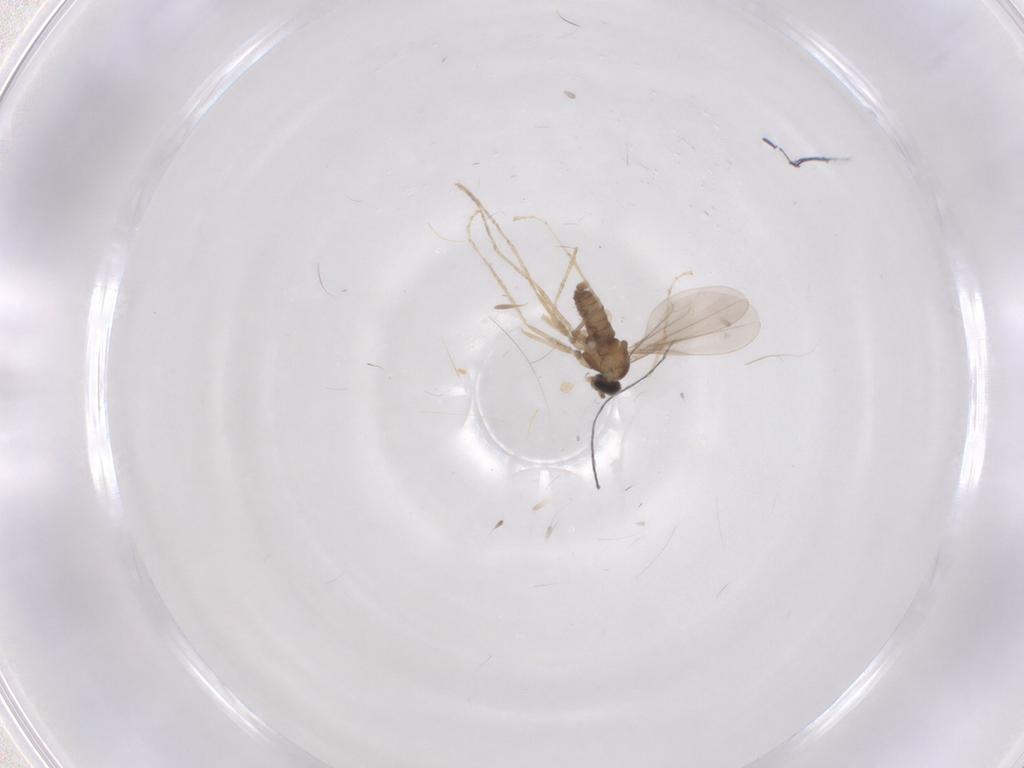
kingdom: Animalia
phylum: Arthropoda
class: Insecta
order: Diptera
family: Cecidomyiidae
